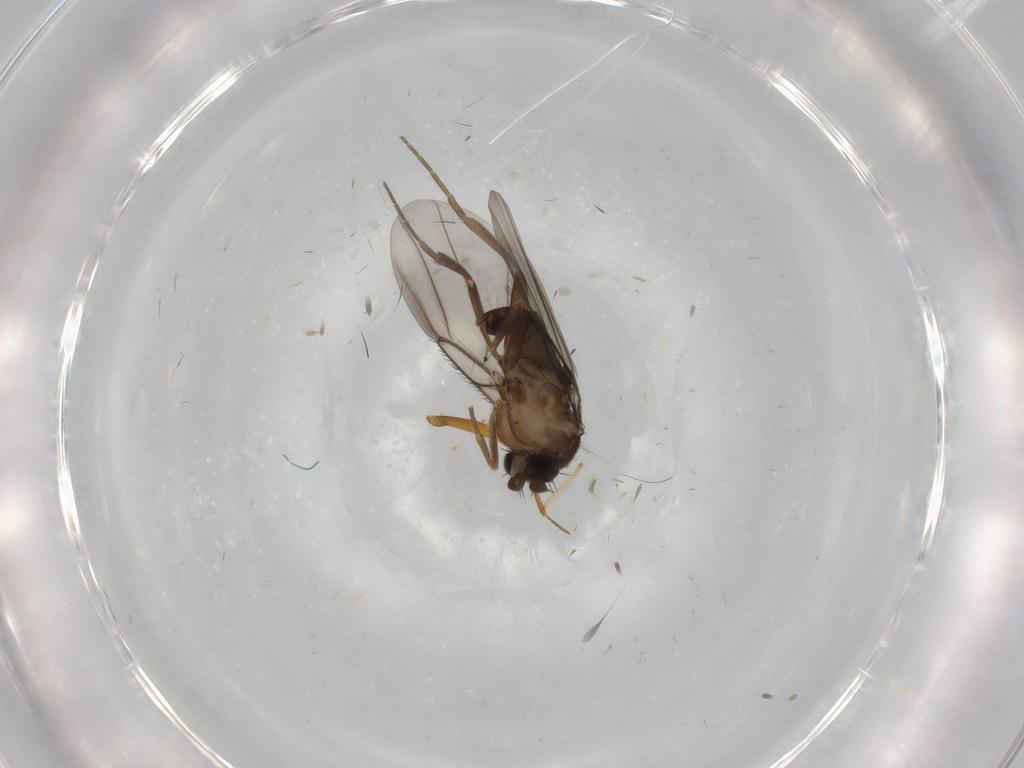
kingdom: Animalia
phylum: Arthropoda
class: Insecta
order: Diptera
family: Phoridae
